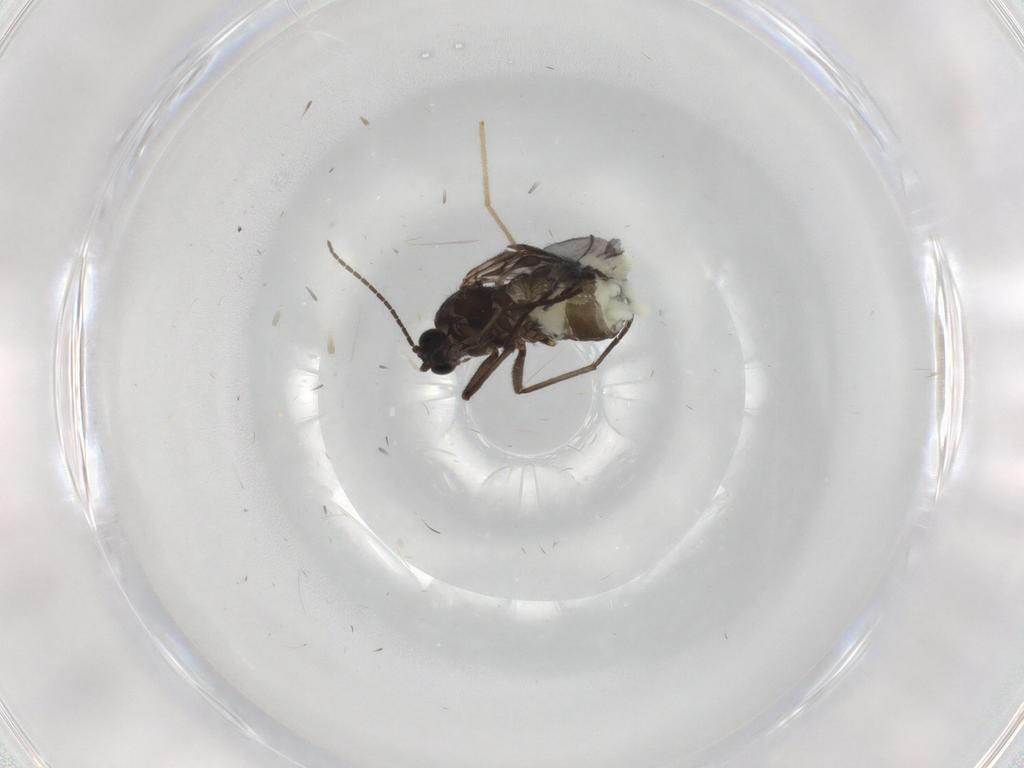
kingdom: Animalia
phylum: Arthropoda
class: Insecta
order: Diptera
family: Sciaridae
